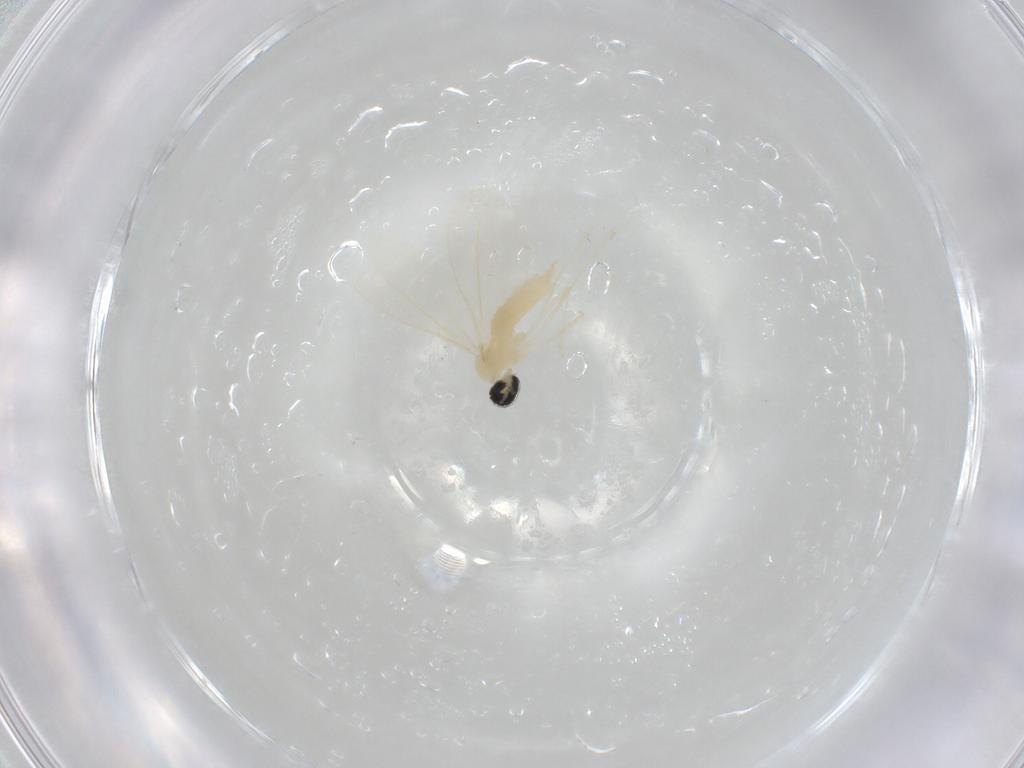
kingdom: Animalia
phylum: Arthropoda
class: Insecta
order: Diptera
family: Cecidomyiidae
